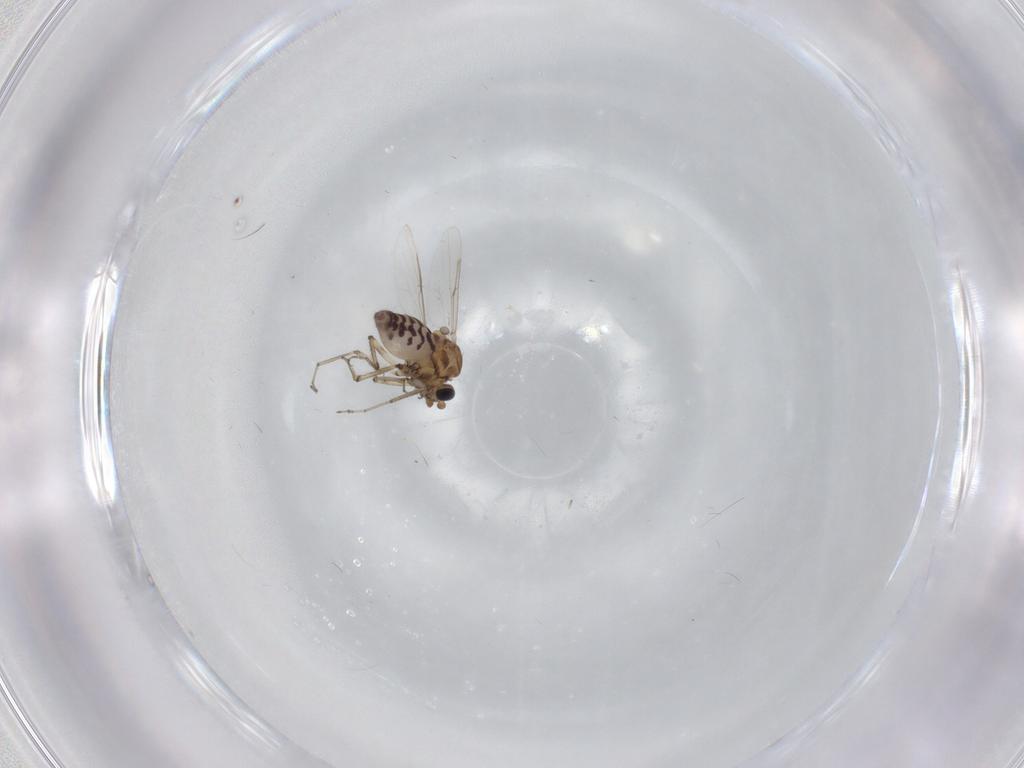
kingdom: Animalia
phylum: Arthropoda
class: Insecta
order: Diptera
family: Ceratopogonidae
